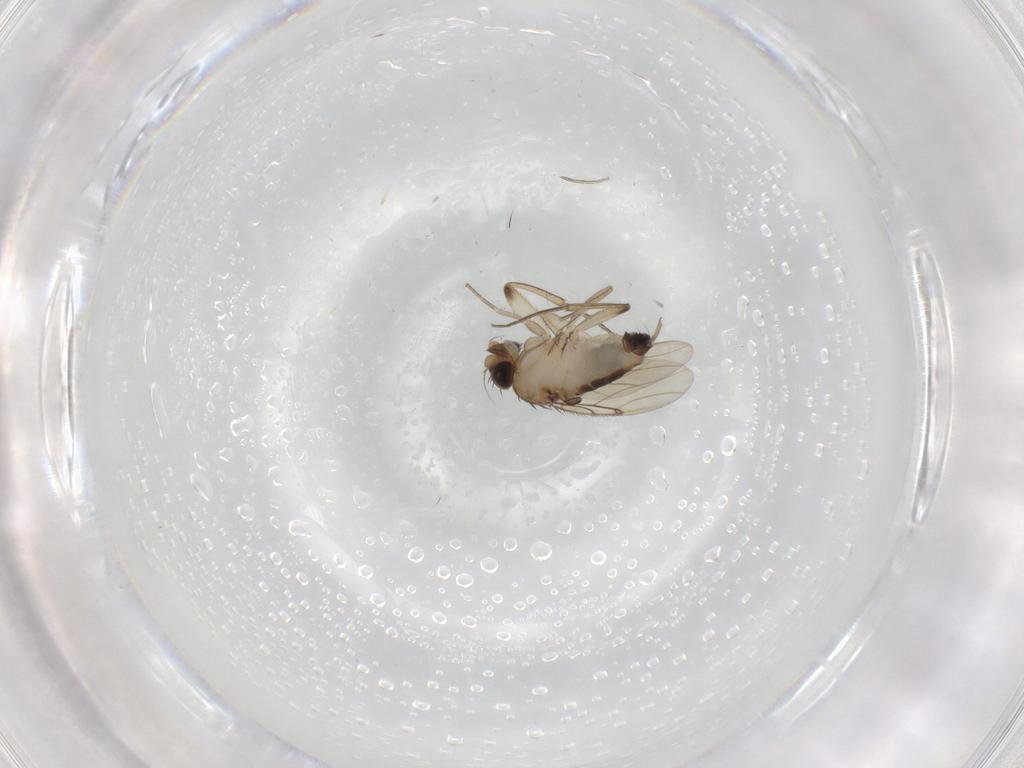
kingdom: Animalia
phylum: Arthropoda
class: Insecta
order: Diptera
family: Phoridae
